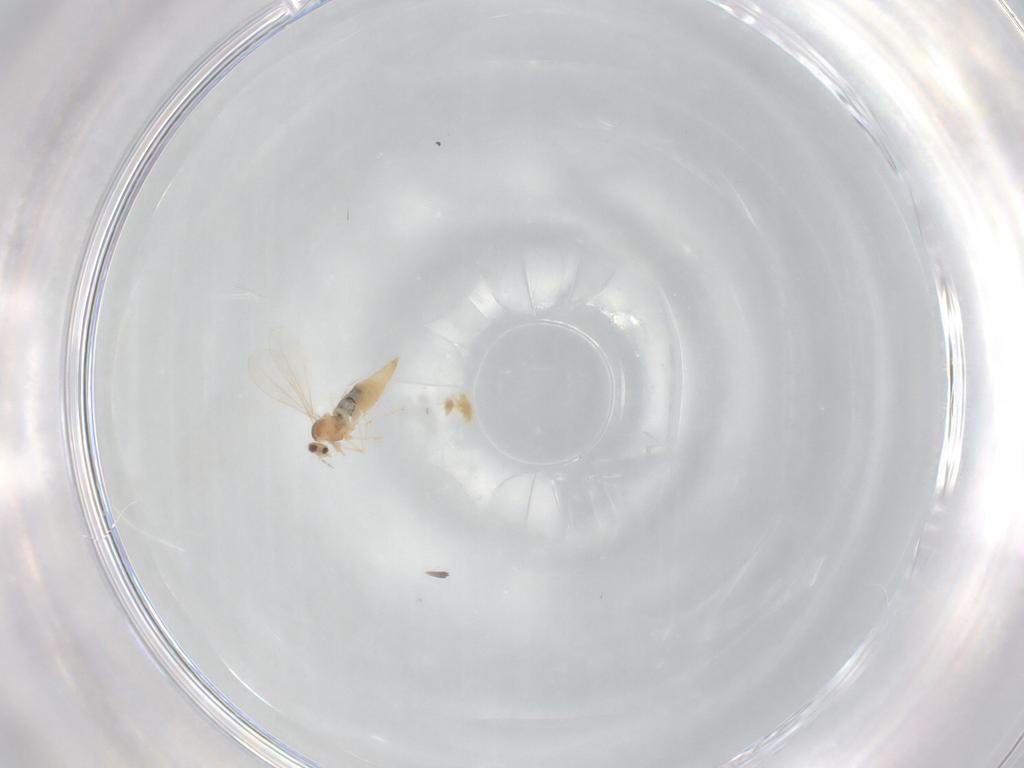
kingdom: Animalia
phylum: Arthropoda
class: Insecta
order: Diptera
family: Cecidomyiidae
